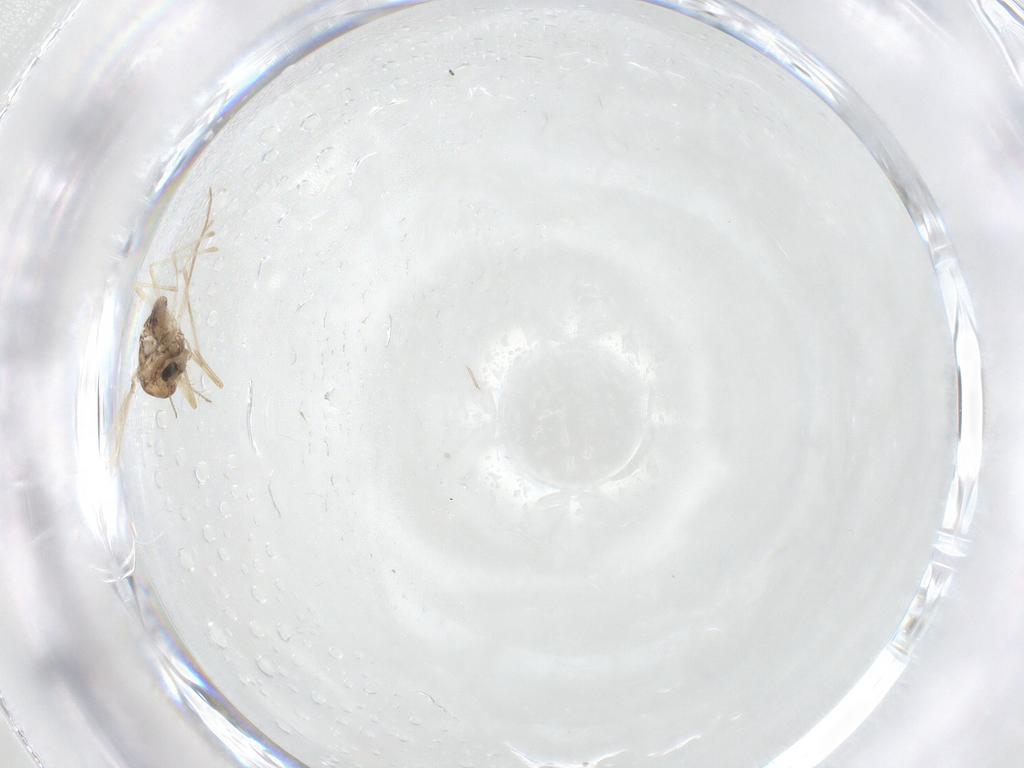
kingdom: Animalia
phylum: Arthropoda
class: Insecta
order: Diptera
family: Chironomidae
